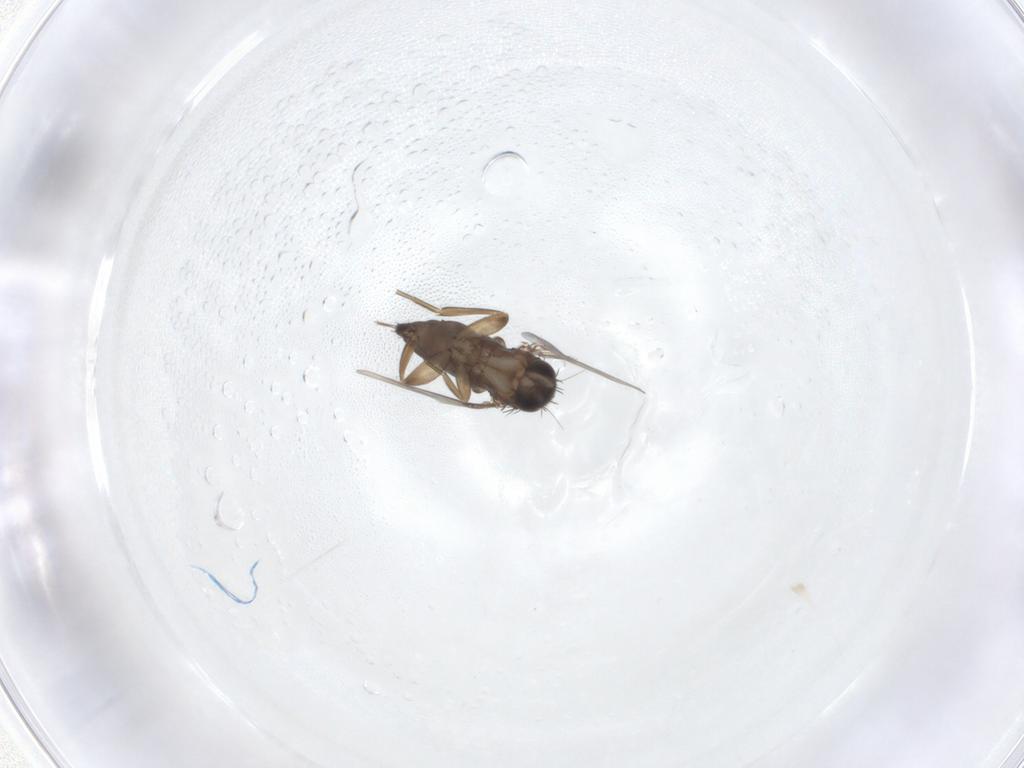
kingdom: Animalia
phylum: Arthropoda
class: Insecta
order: Diptera
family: Phoridae
